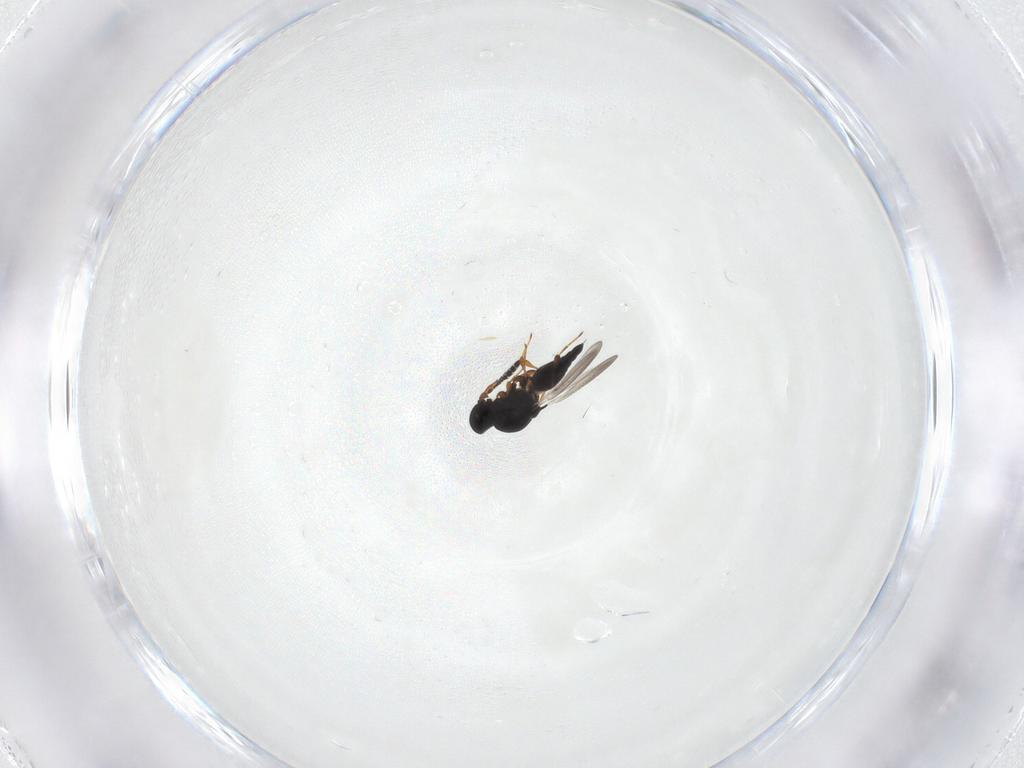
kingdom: Animalia
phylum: Arthropoda
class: Insecta
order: Hymenoptera
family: Platygastridae
